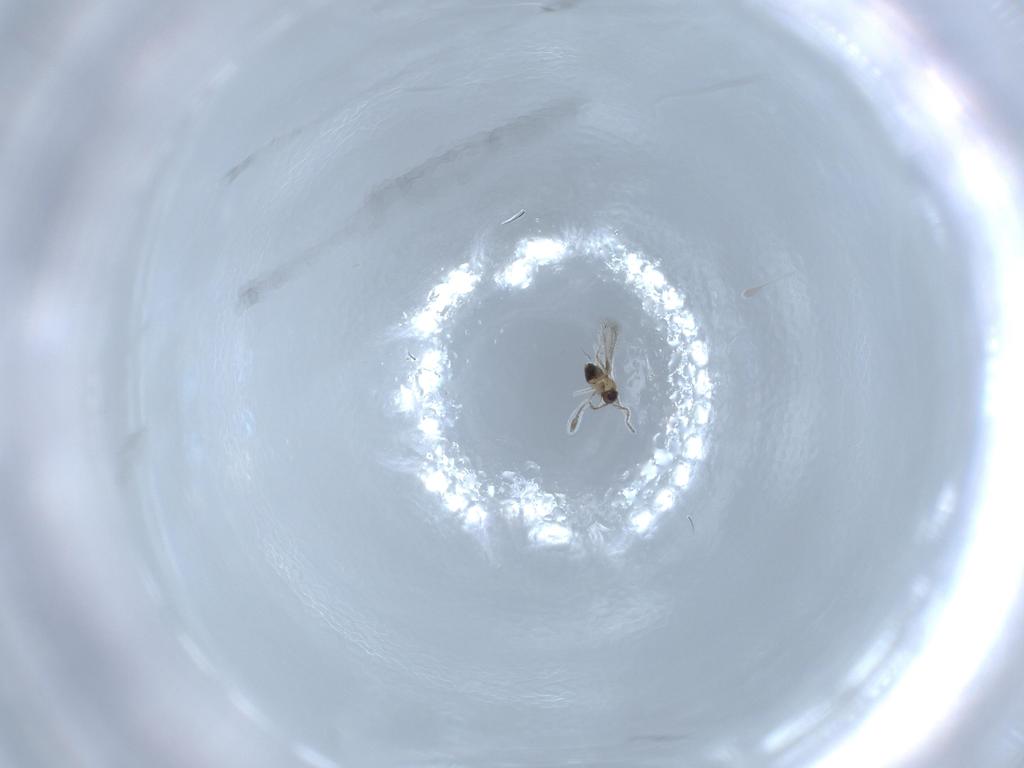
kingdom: Animalia
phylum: Arthropoda
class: Insecta
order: Hymenoptera
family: Mymaridae
